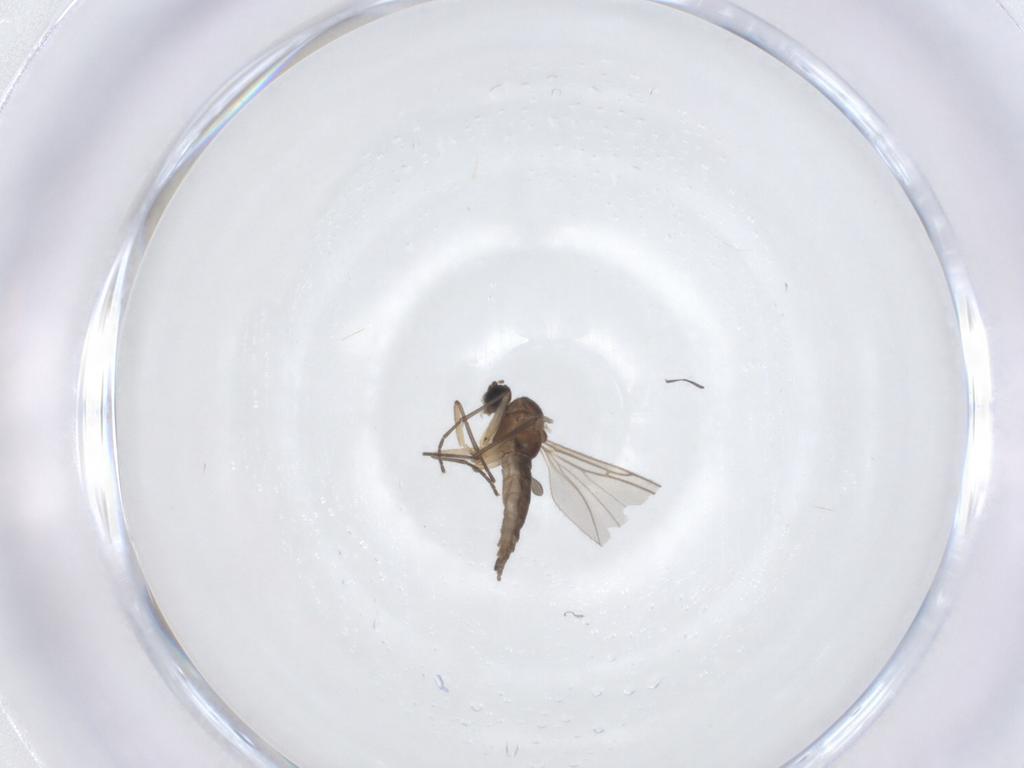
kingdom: Animalia
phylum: Arthropoda
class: Insecta
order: Diptera
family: Sciaridae
